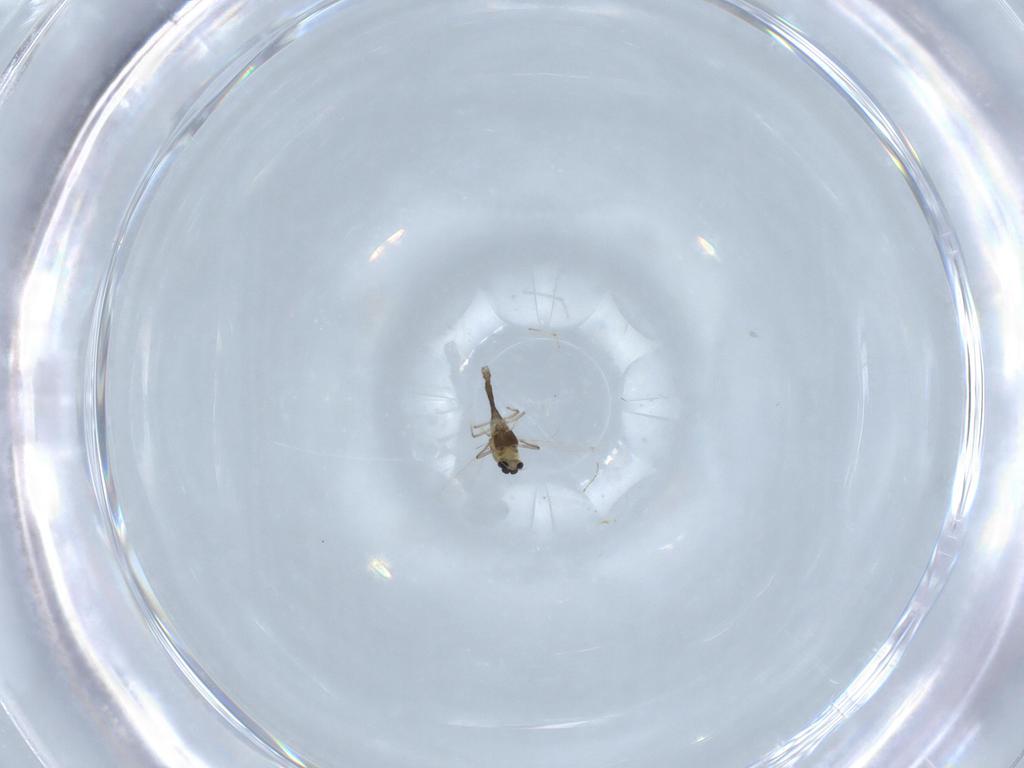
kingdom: Animalia
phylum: Arthropoda
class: Insecta
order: Diptera
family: Chironomidae
